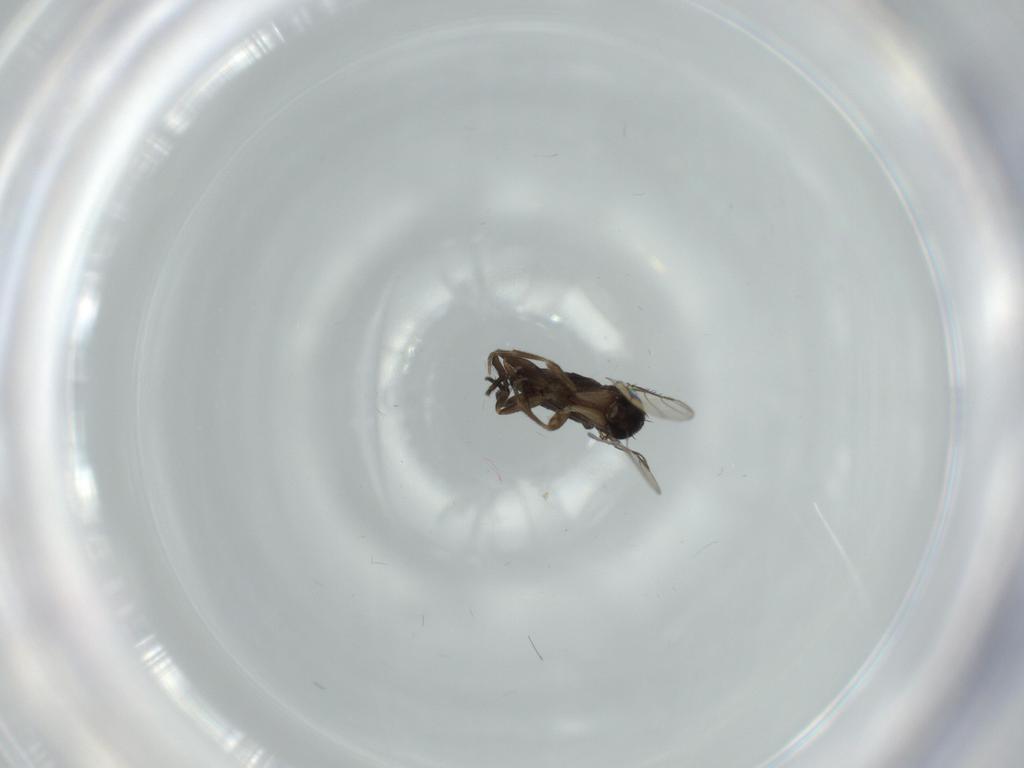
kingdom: Animalia
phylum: Arthropoda
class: Insecta
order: Diptera
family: Phoridae
